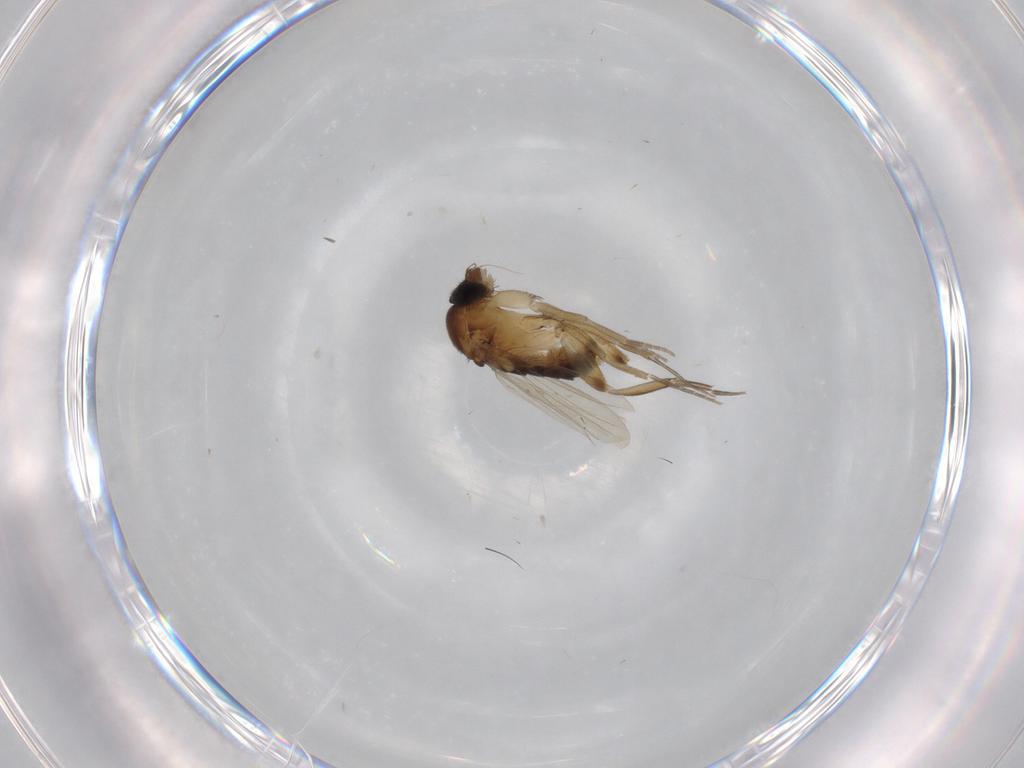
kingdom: Animalia
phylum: Arthropoda
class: Insecta
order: Diptera
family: Phoridae
